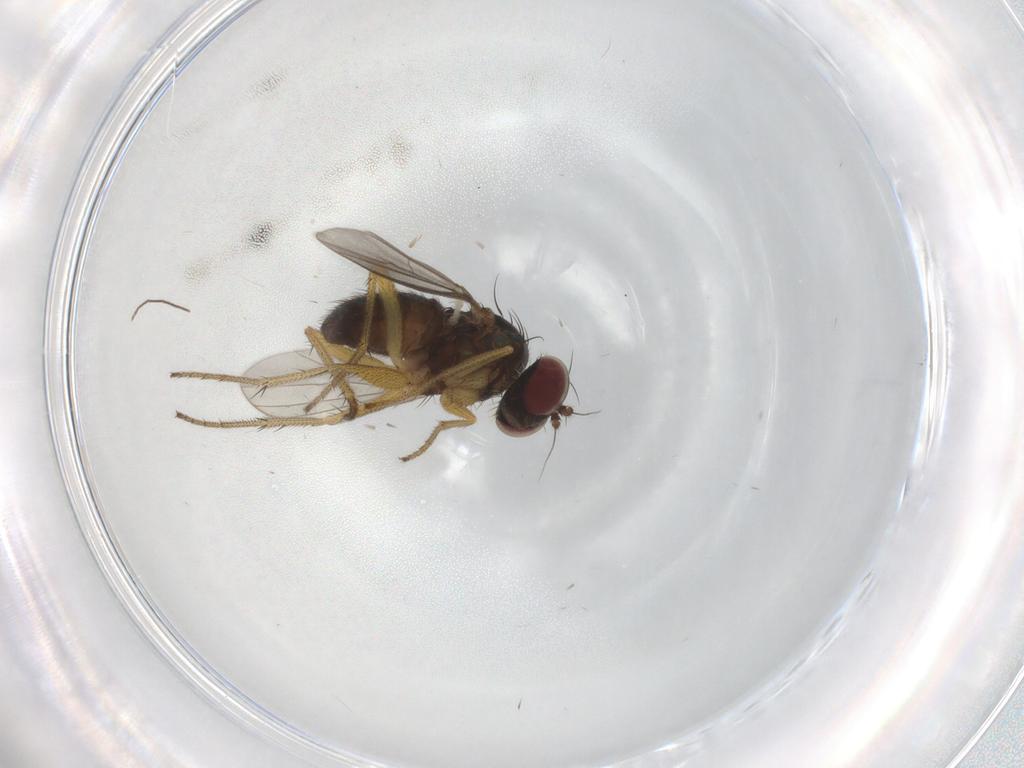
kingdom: Animalia
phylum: Arthropoda
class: Insecta
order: Diptera
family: Chironomidae
